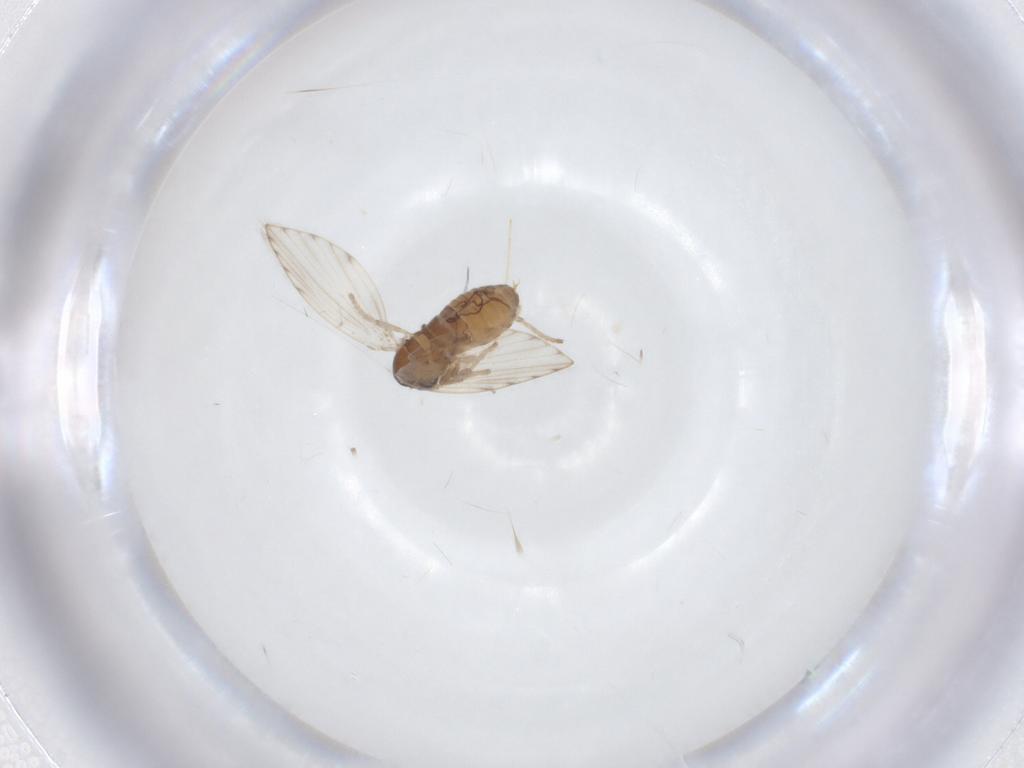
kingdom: Animalia
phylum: Arthropoda
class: Insecta
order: Diptera
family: Psychodidae
